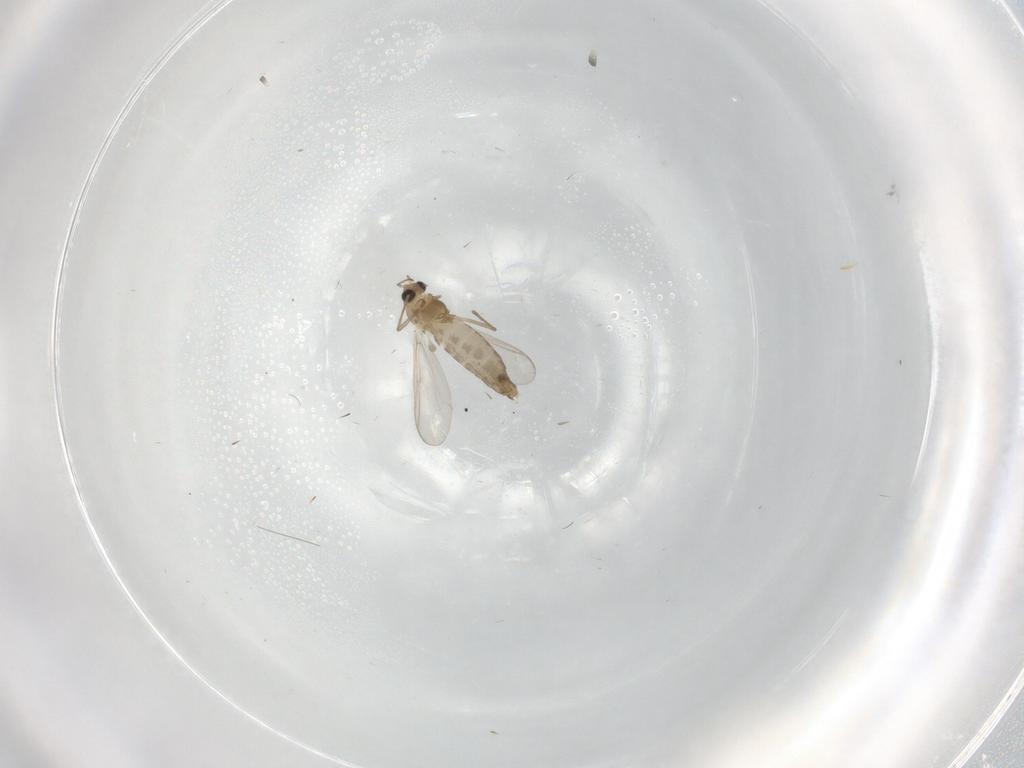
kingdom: Animalia
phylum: Arthropoda
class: Insecta
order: Diptera
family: Chironomidae
